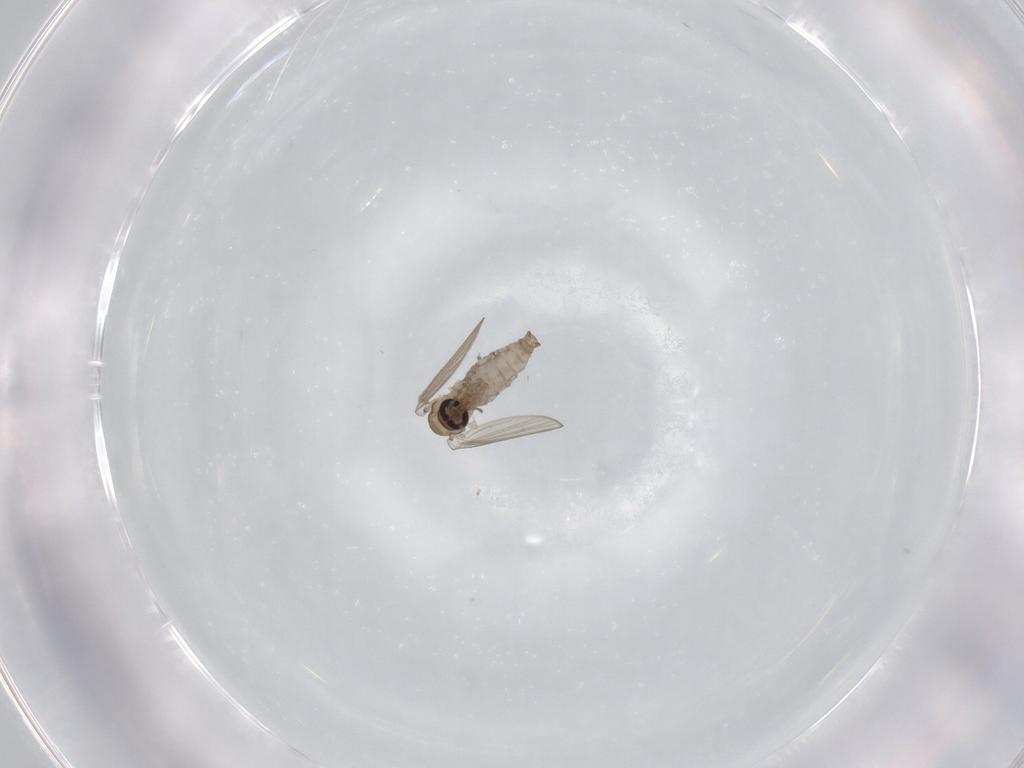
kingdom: Animalia
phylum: Arthropoda
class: Insecta
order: Diptera
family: Psychodidae
